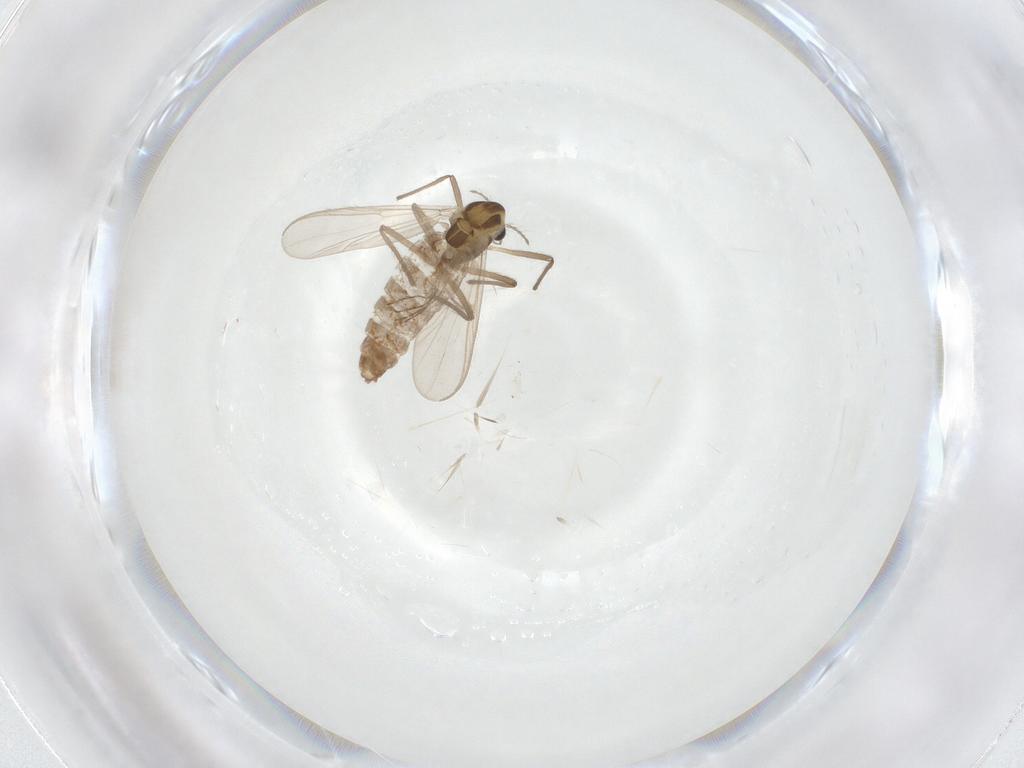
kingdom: Animalia
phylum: Arthropoda
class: Insecta
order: Diptera
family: Chironomidae
